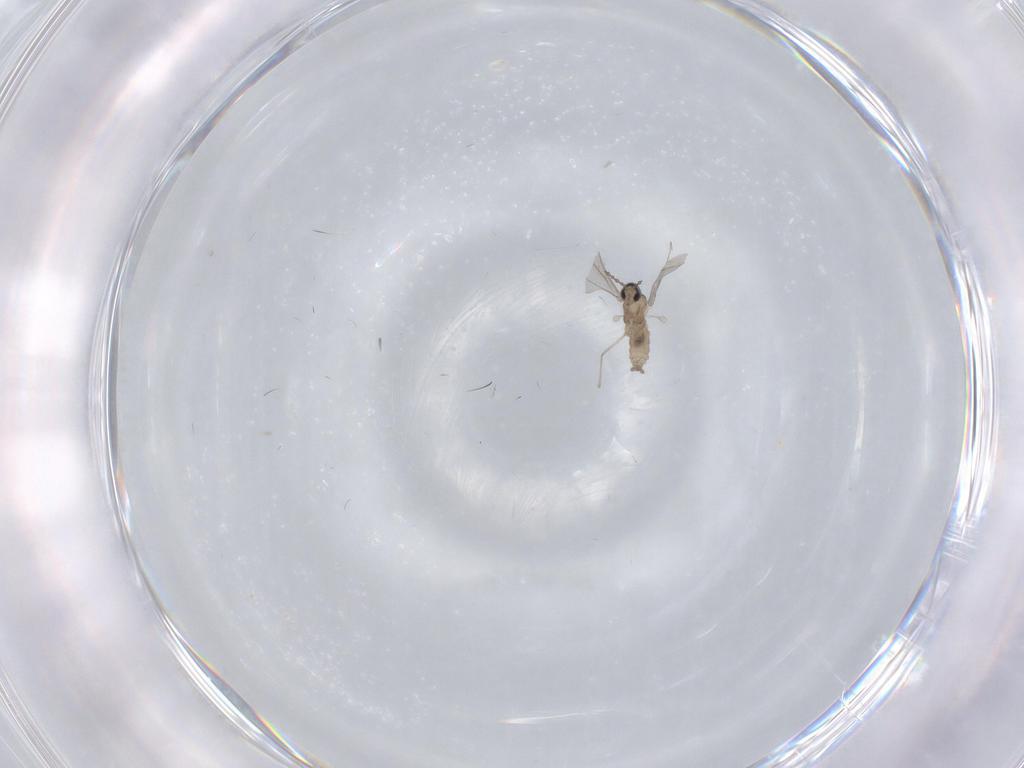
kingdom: Animalia
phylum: Arthropoda
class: Insecta
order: Diptera
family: Cecidomyiidae
